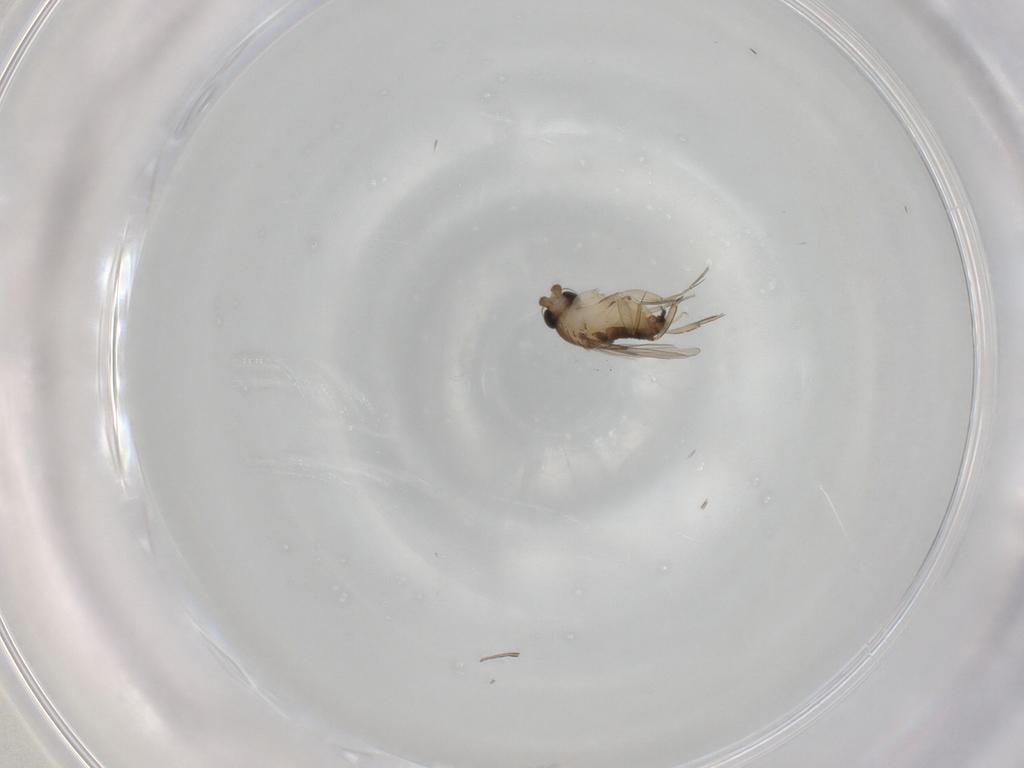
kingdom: Animalia
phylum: Arthropoda
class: Insecta
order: Diptera
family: Phoridae
